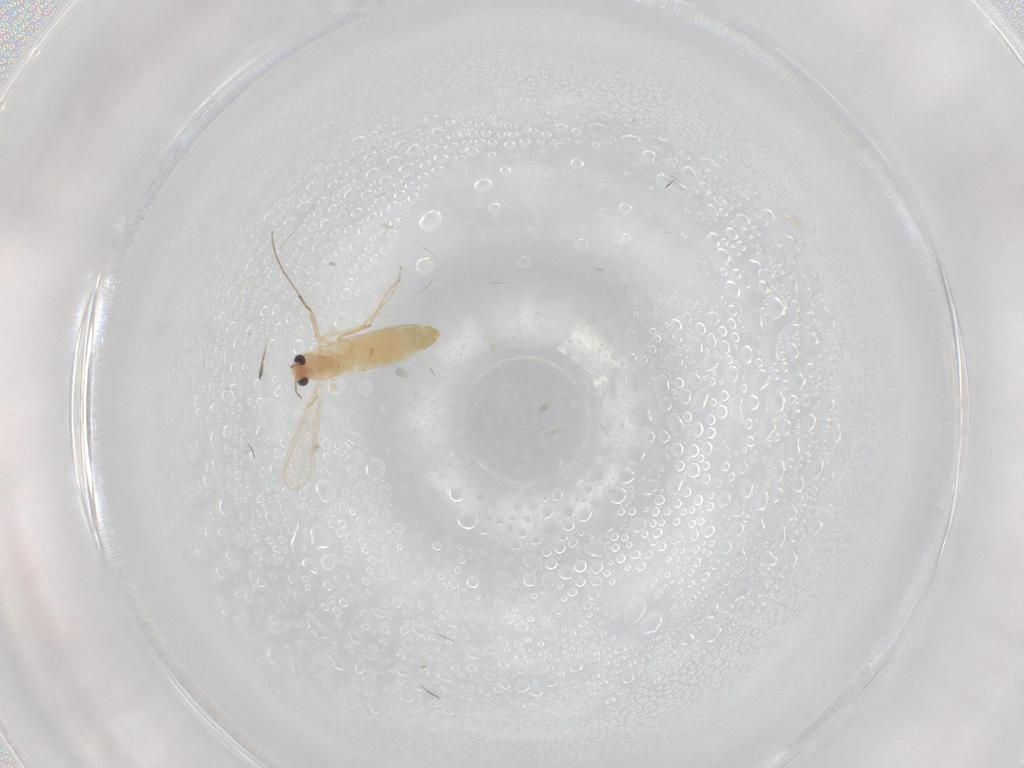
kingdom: Animalia
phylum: Arthropoda
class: Insecta
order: Diptera
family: Chironomidae
